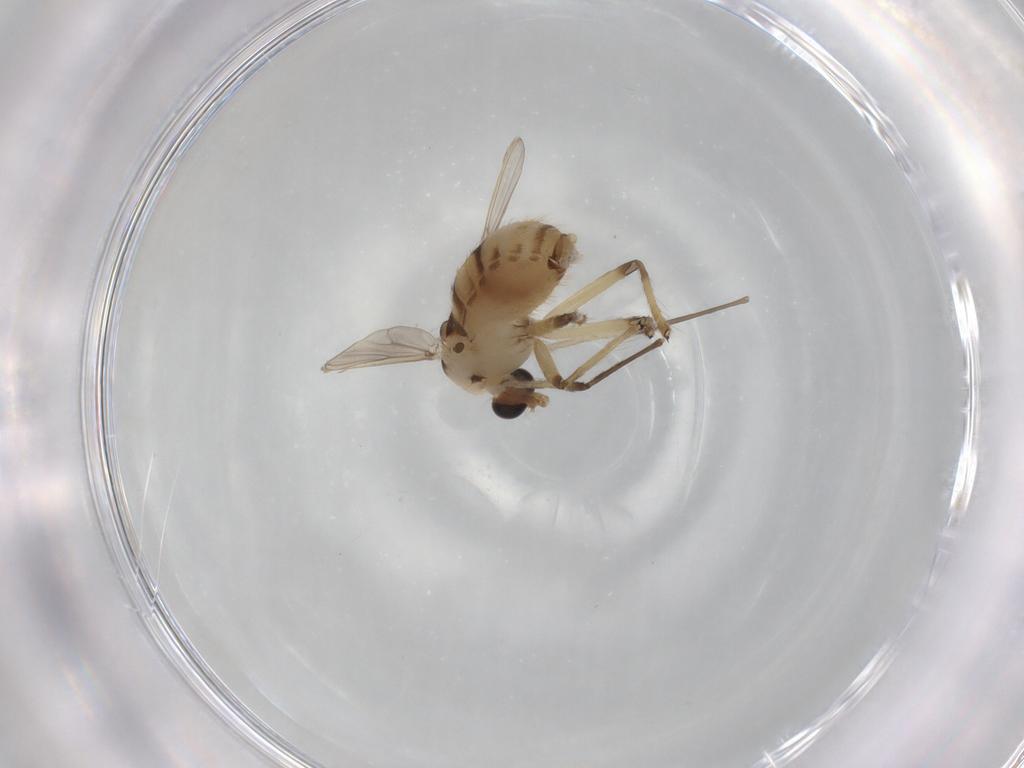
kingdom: Animalia
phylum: Arthropoda
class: Insecta
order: Diptera
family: Chironomidae
